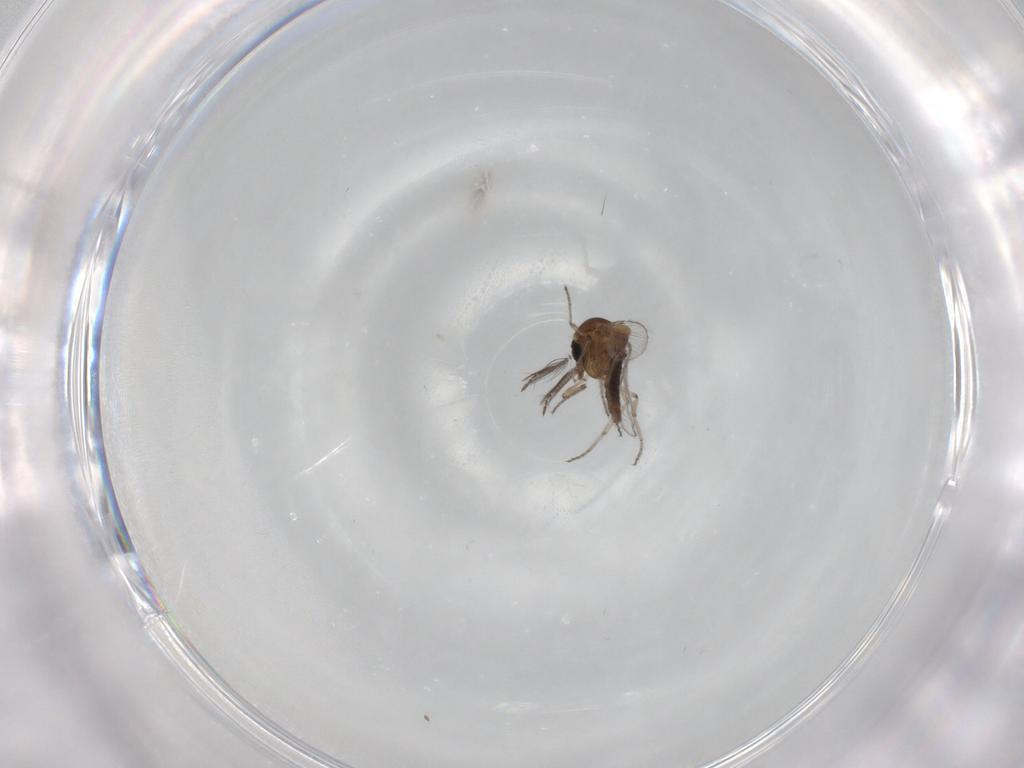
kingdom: Animalia
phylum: Arthropoda
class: Insecta
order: Diptera
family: Ceratopogonidae
